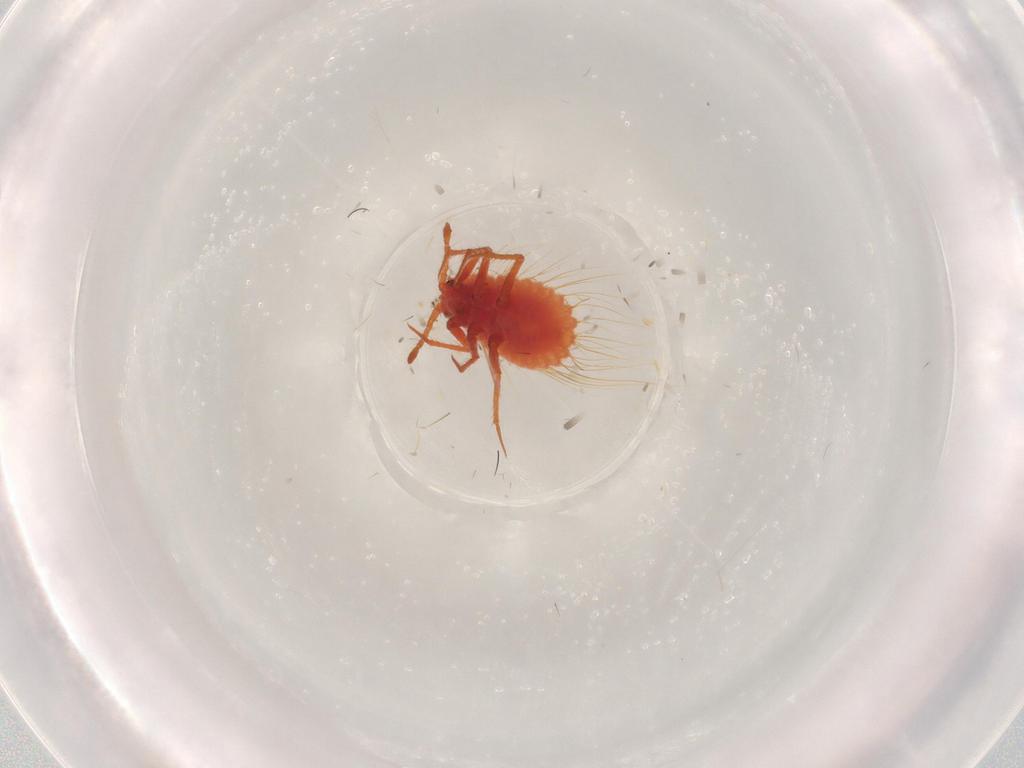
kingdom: Animalia
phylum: Arthropoda
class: Insecta
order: Hemiptera
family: Monophlebidae
